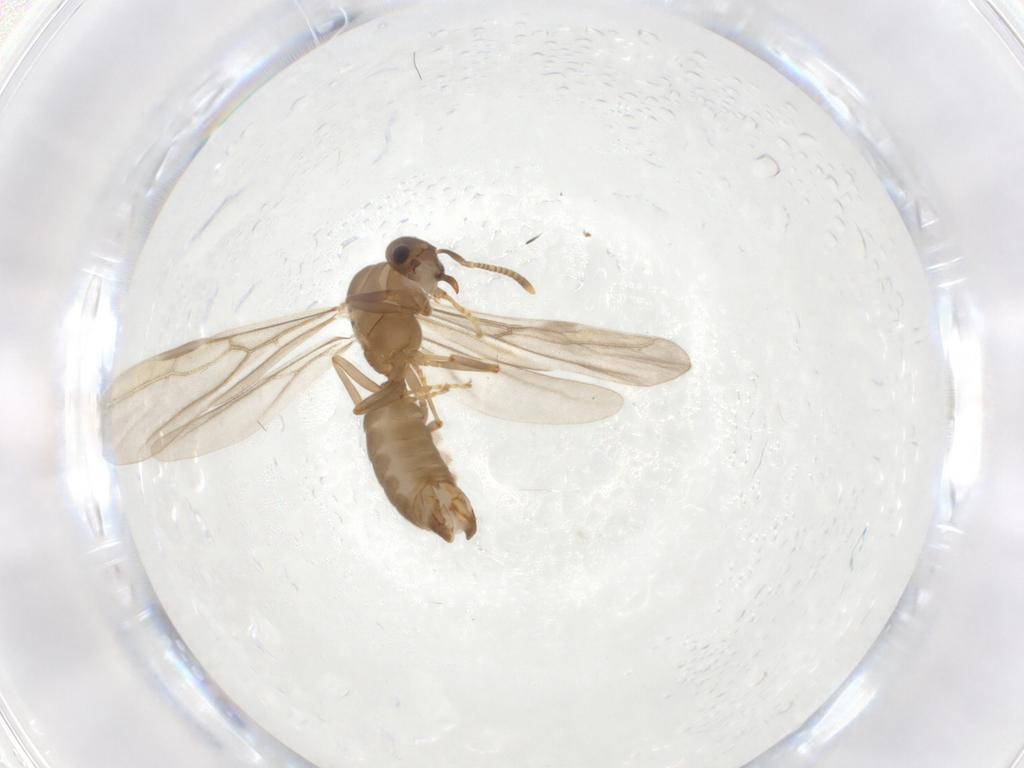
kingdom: Animalia
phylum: Arthropoda
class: Insecta
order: Hymenoptera
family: Formicidae
